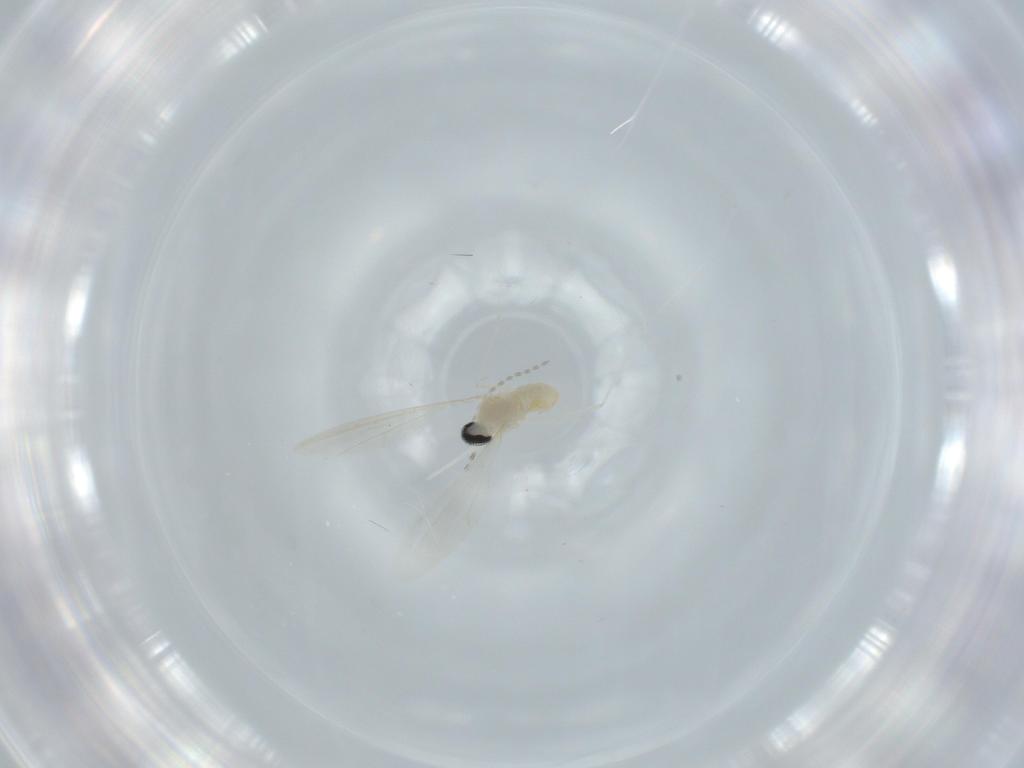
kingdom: Animalia
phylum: Arthropoda
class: Insecta
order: Diptera
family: Cecidomyiidae
